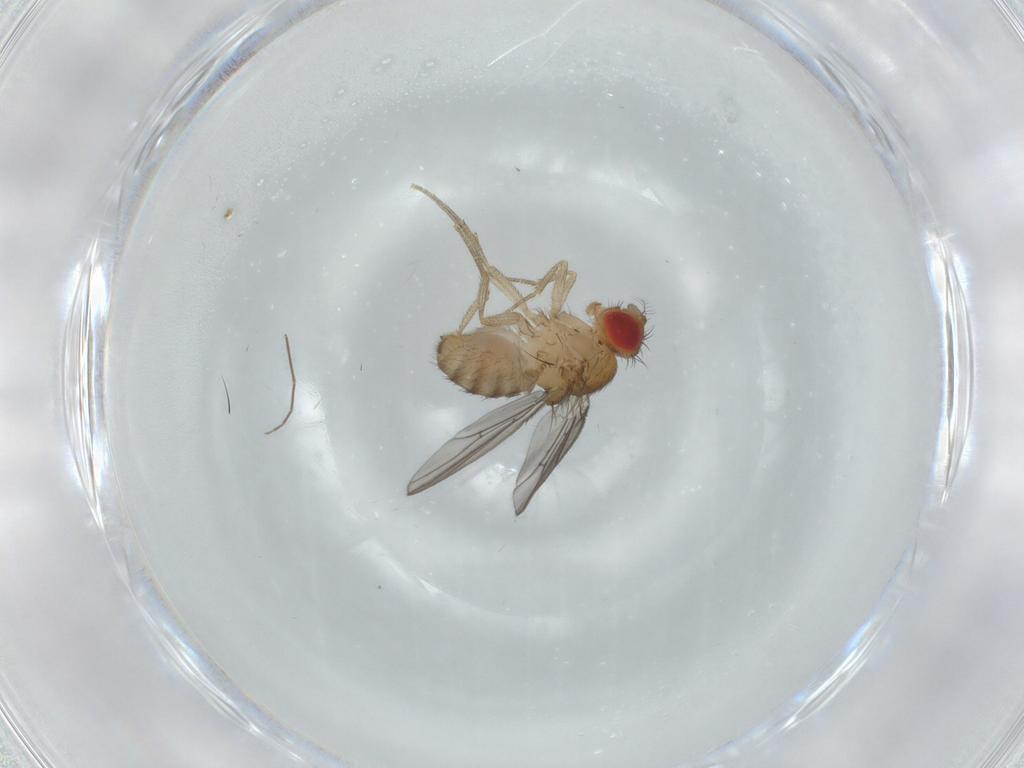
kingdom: Animalia
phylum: Arthropoda
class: Insecta
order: Diptera
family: Drosophilidae
